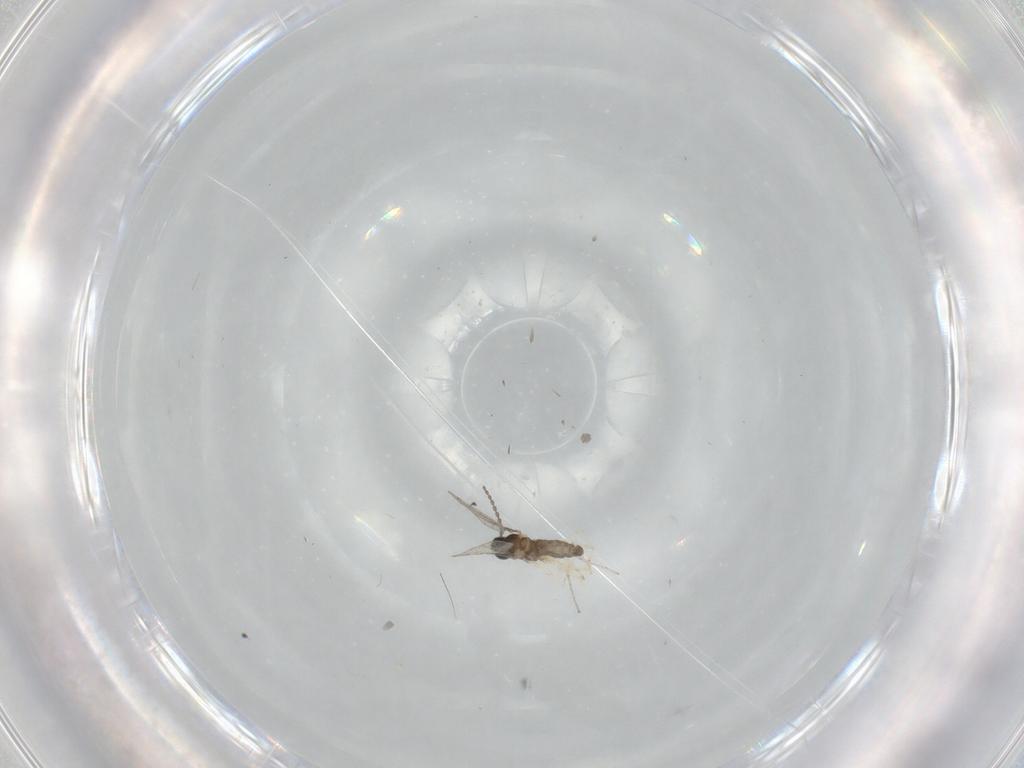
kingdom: Animalia
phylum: Arthropoda
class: Insecta
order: Diptera
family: Cecidomyiidae
